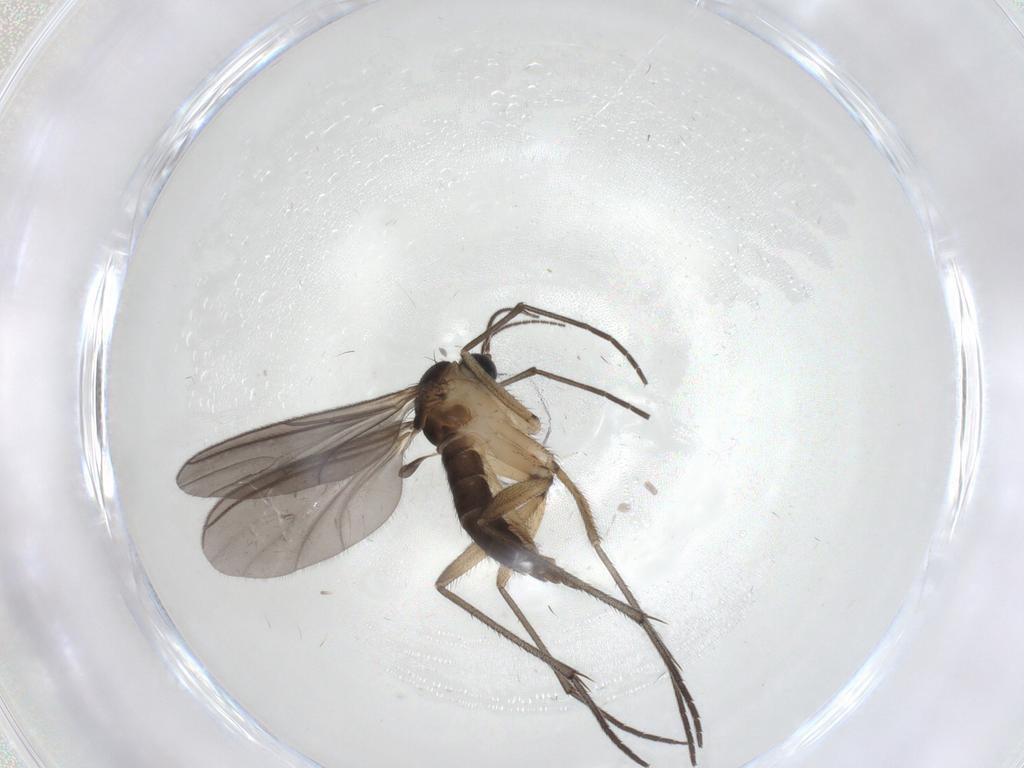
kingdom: Animalia
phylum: Arthropoda
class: Insecta
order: Diptera
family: Sciaridae
